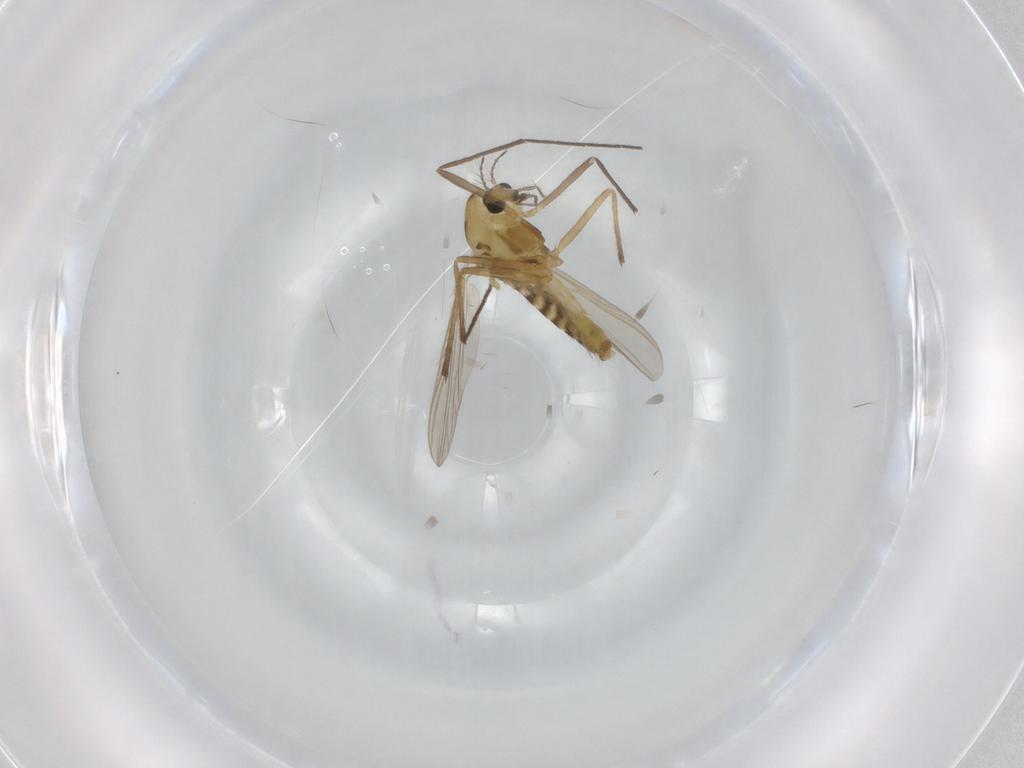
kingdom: Animalia
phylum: Arthropoda
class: Insecta
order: Diptera
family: Chironomidae
